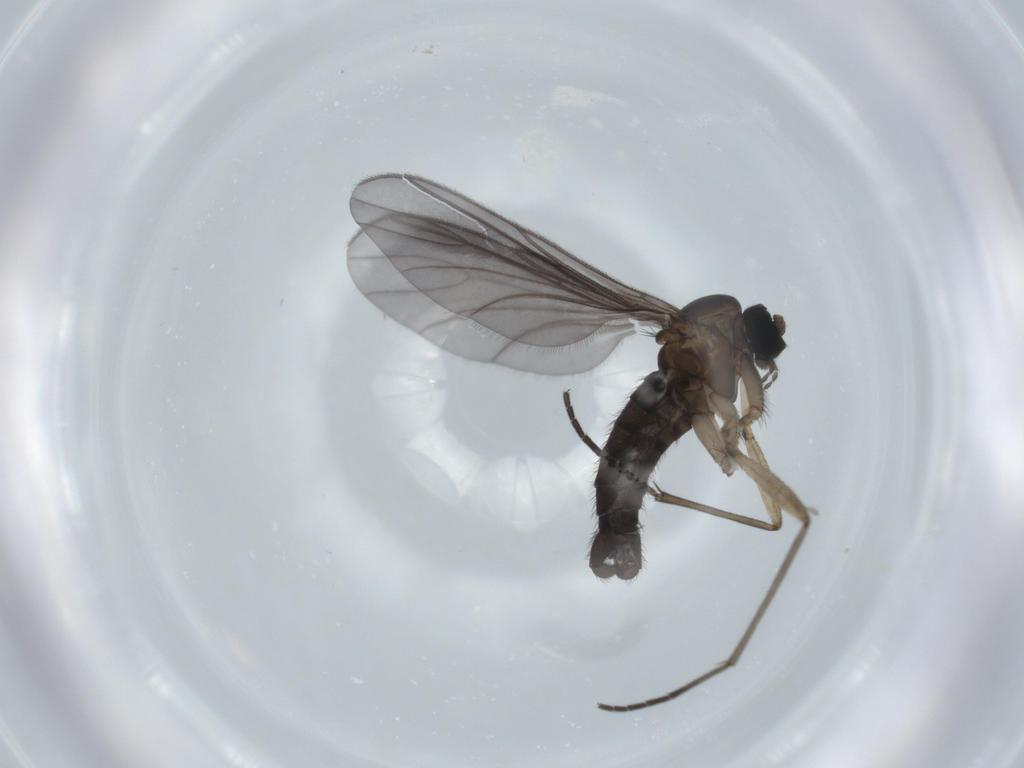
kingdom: Animalia
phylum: Arthropoda
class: Insecta
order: Diptera
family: Sciaridae
